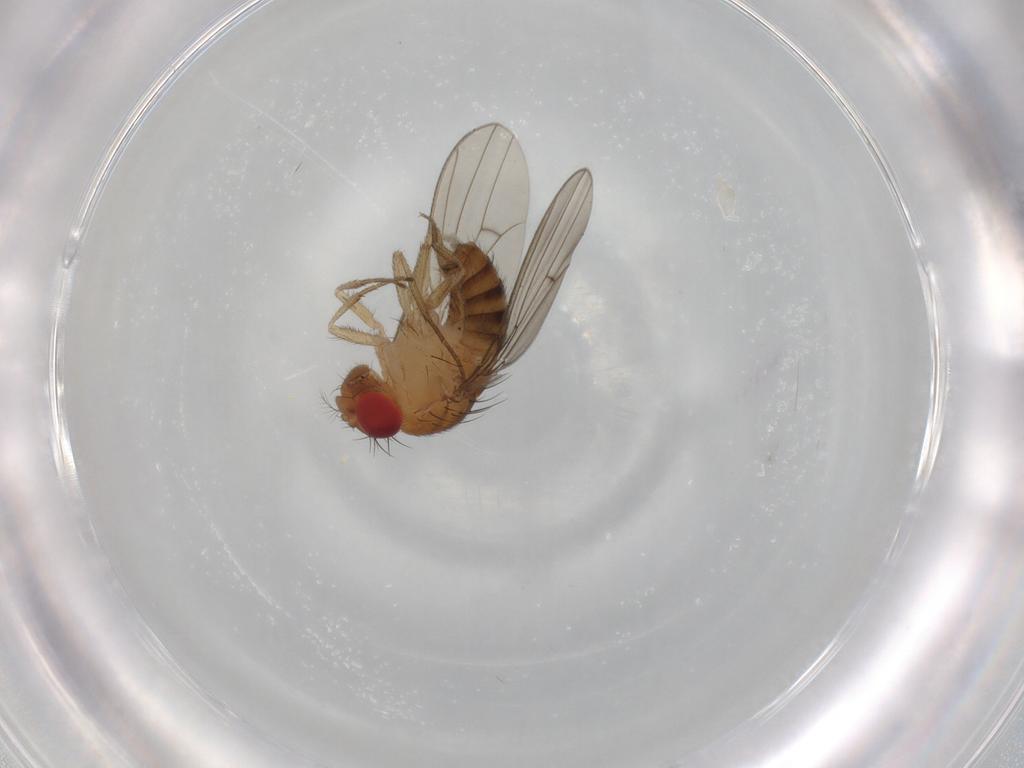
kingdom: Animalia
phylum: Arthropoda
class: Insecta
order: Diptera
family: Drosophilidae
